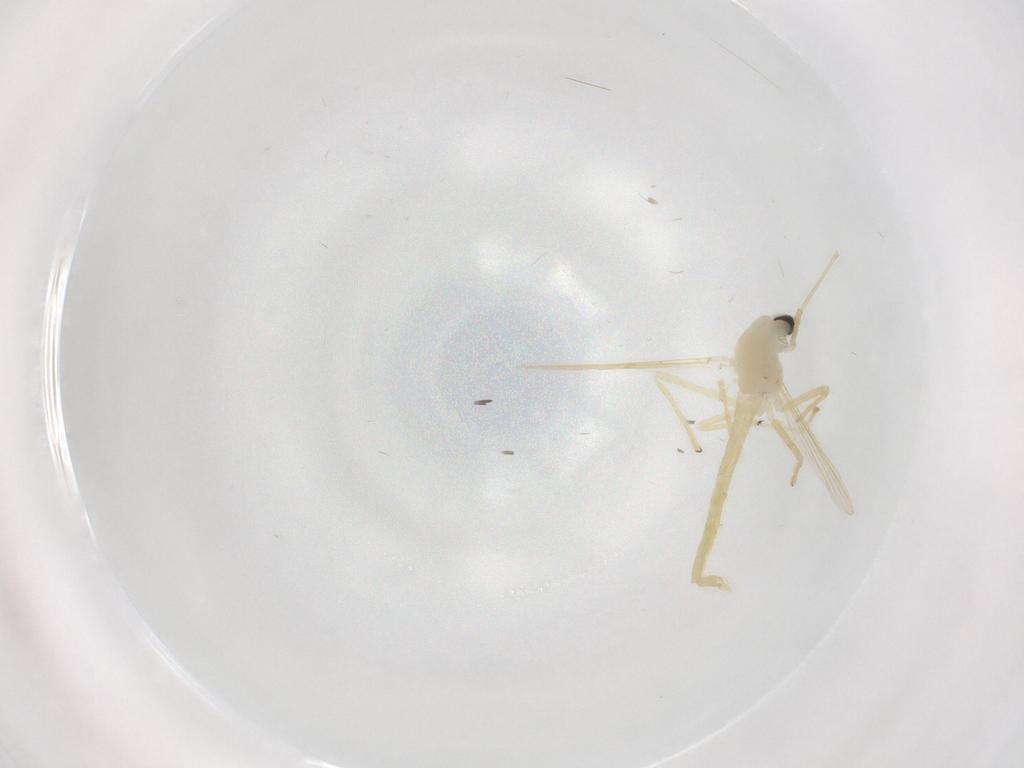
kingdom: Animalia
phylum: Arthropoda
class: Insecta
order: Diptera
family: Chironomidae
